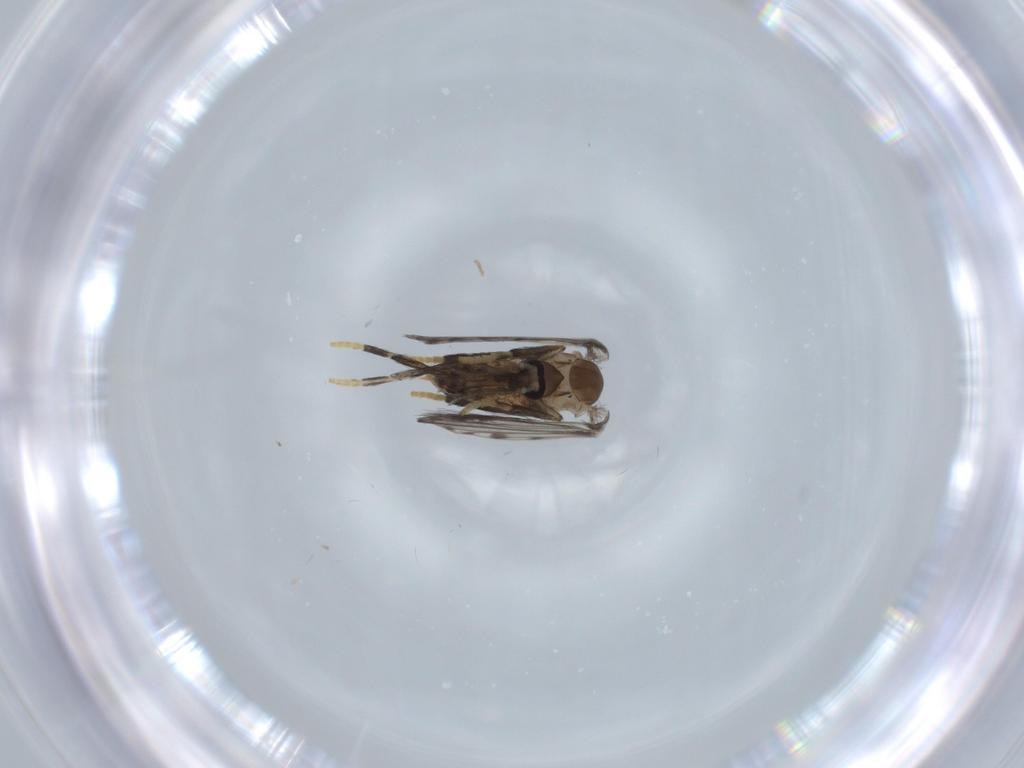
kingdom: Animalia
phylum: Arthropoda
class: Insecta
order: Diptera
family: Psychodidae
